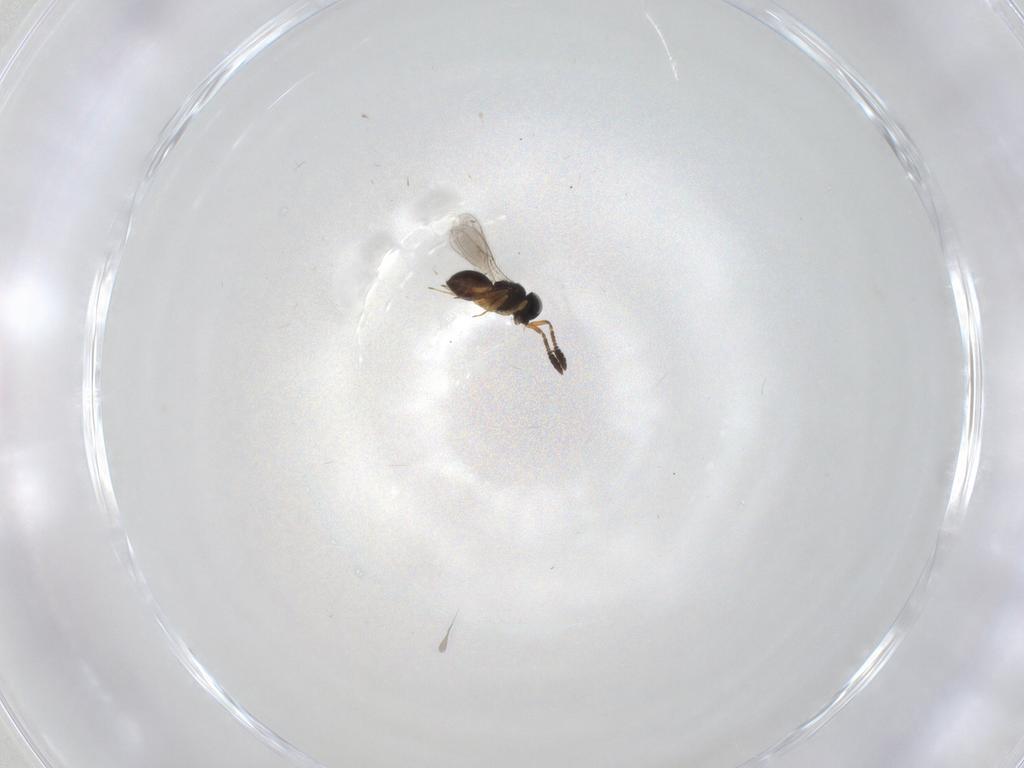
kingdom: Animalia
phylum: Arthropoda
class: Insecta
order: Hymenoptera
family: Scelionidae
